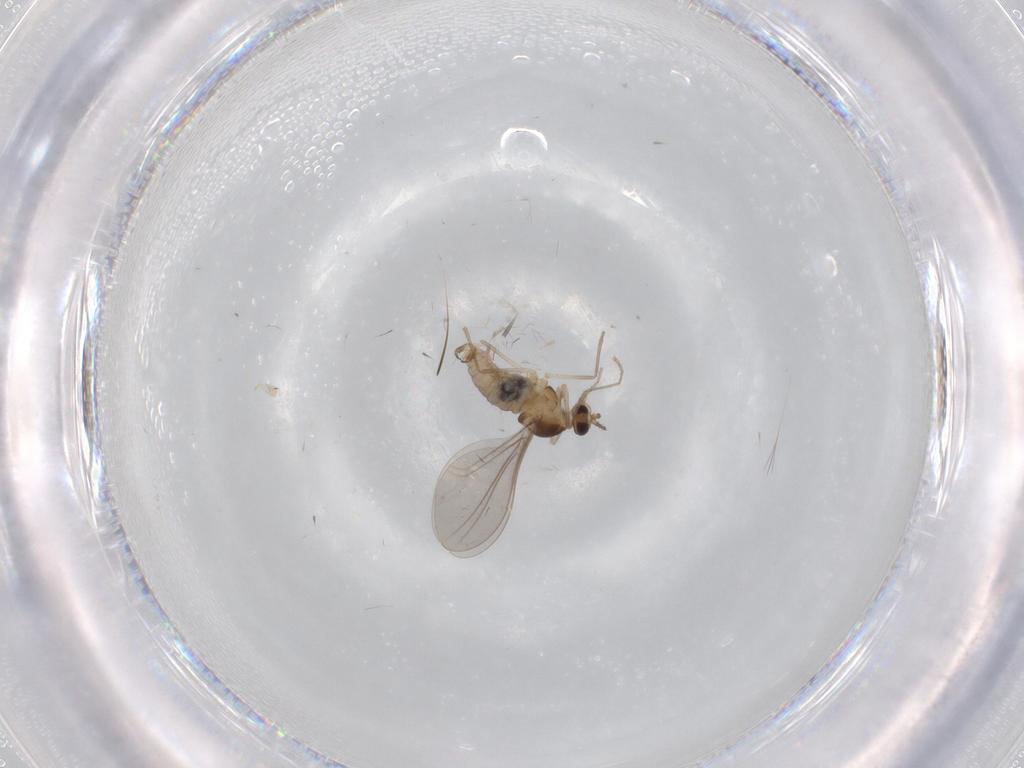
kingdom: Animalia
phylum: Arthropoda
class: Insecta
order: Diptera
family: Cecidomyiidae
